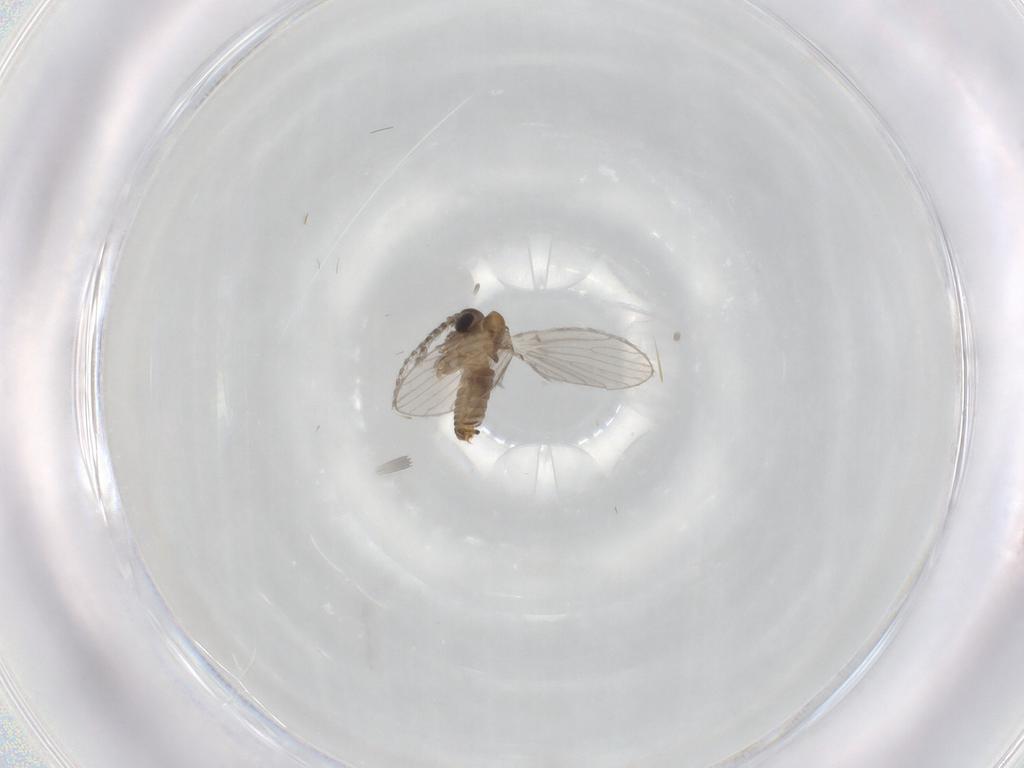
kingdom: Animalia
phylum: Arthropoda
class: Insecta
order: Diptera
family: Psychodidae
